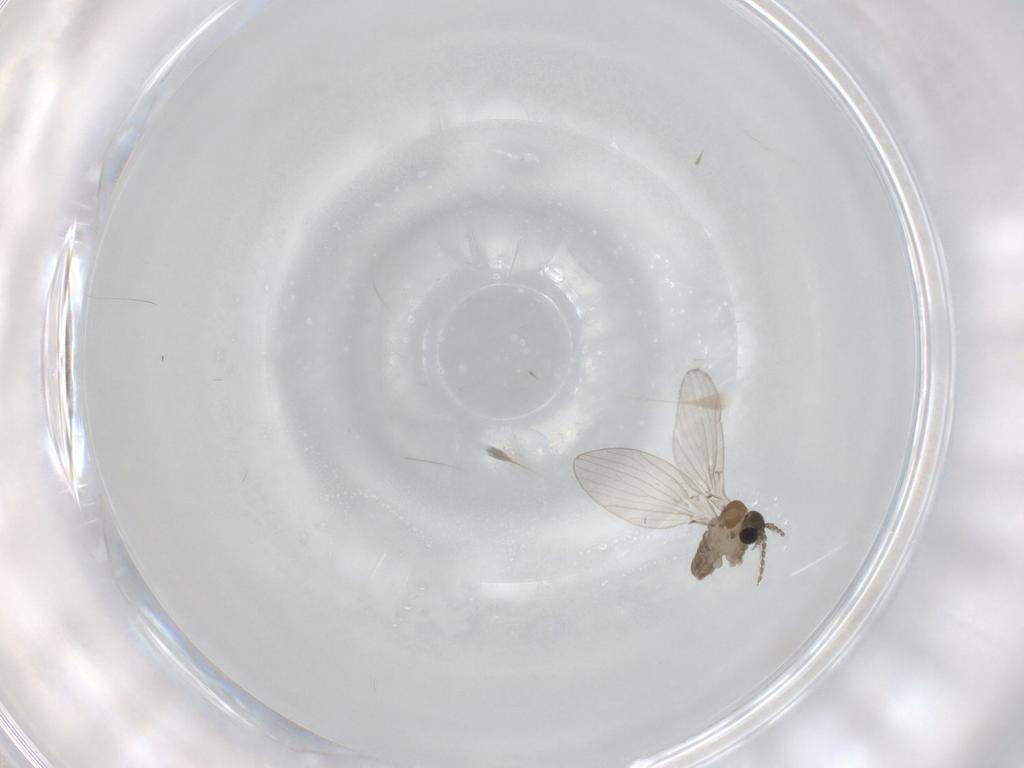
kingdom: Animalia
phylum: Arthropoda
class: Insecta
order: Diptera
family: Psychodidae
